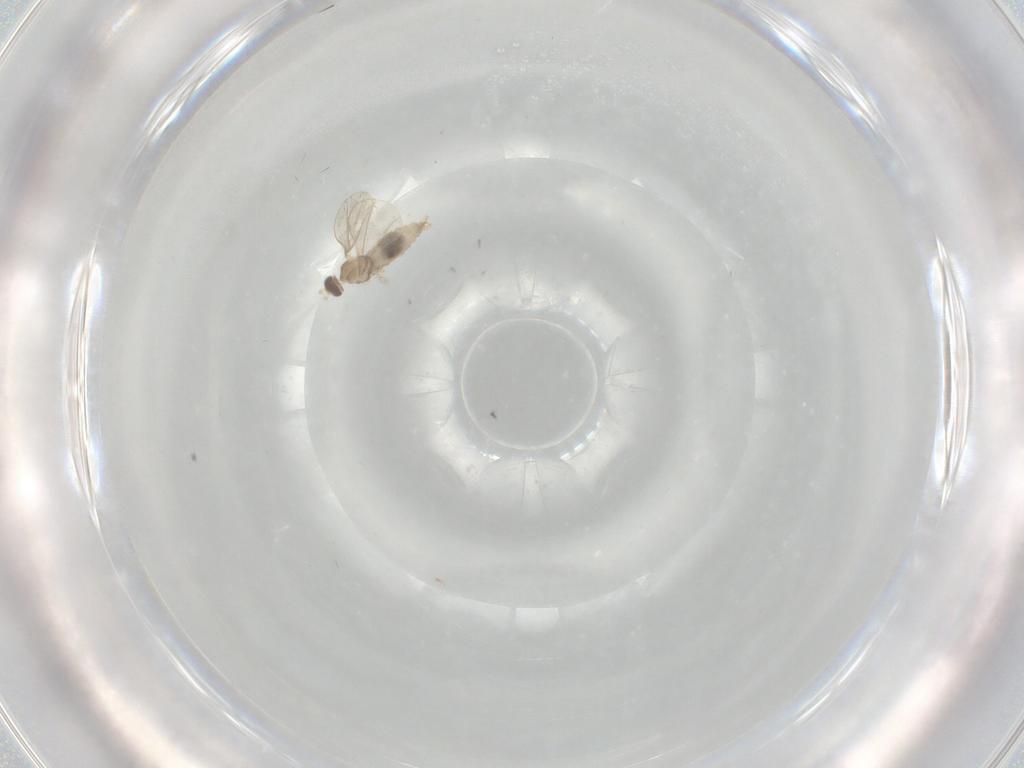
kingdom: Animalia
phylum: Arthropoda
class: Insecta
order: Diptera
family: Cecidomyiidae
